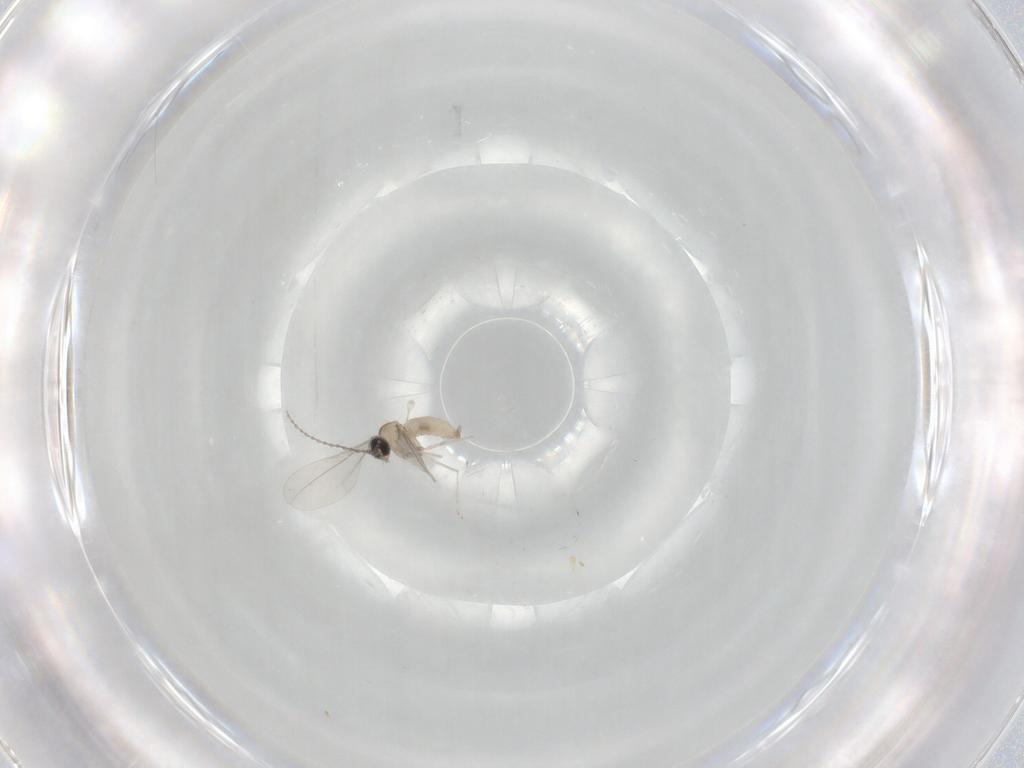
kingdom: Animalia
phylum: Arthropoda
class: Insecta
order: Diptera
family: Cecidomyiidae
